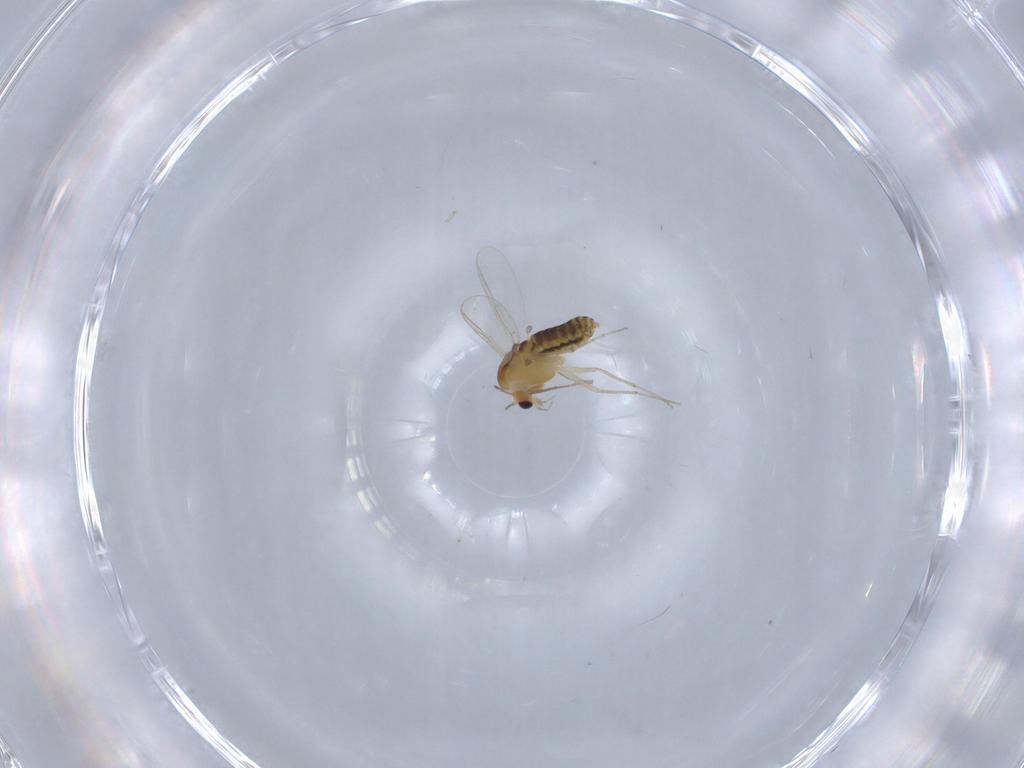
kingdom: Animalia
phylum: Arthropoda
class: Insecta
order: Diptera
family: Chironomidae
